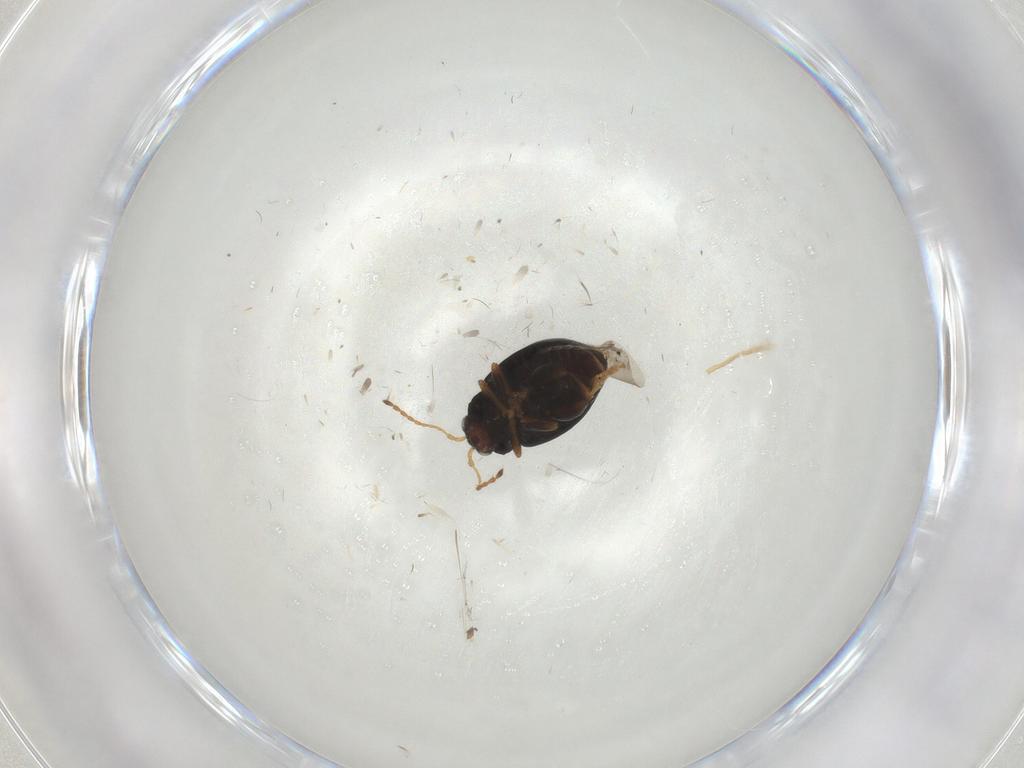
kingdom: Animalia
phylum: Arthropoda
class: Insecta
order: Coleoptera
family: Chrysomelidae
